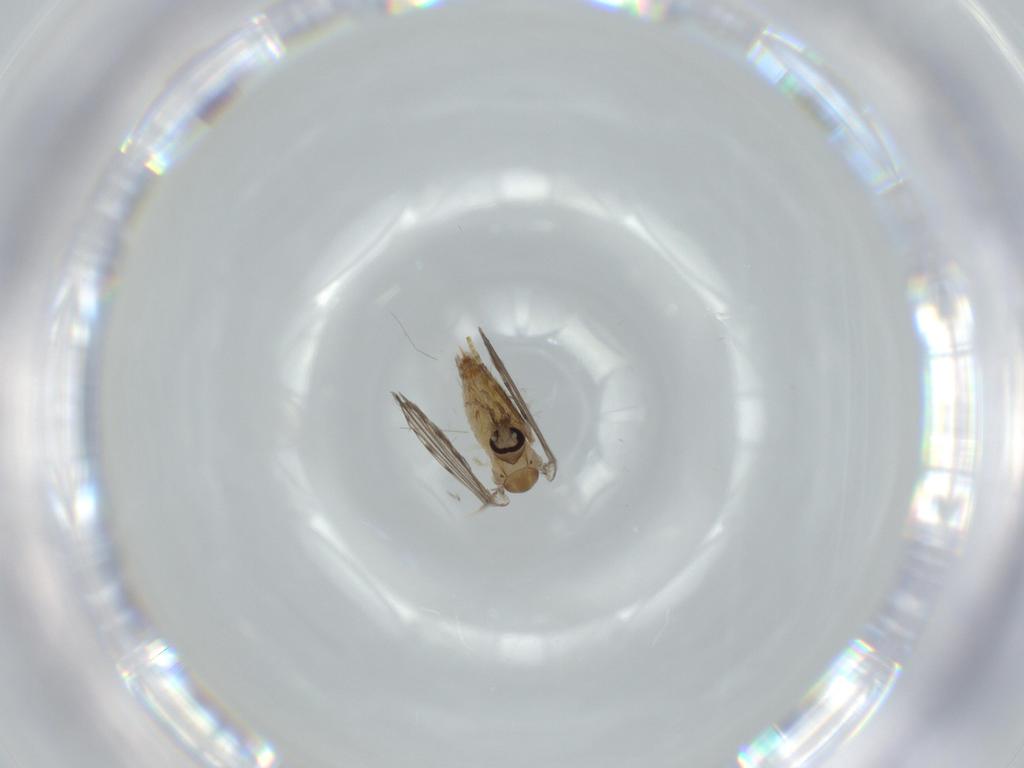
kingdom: Animalia
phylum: Arthropoda
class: Insecta
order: Diptera
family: Psychodidae
